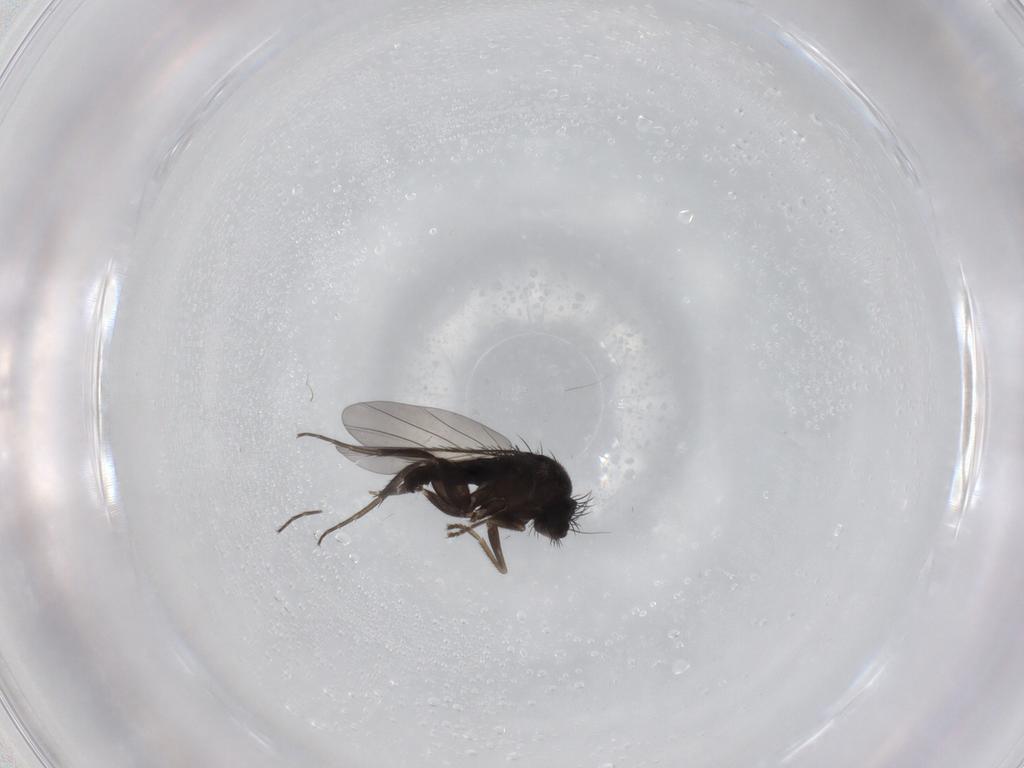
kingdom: Animalia
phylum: Arthropoda
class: Insecta
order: Diptera
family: Phoridae
